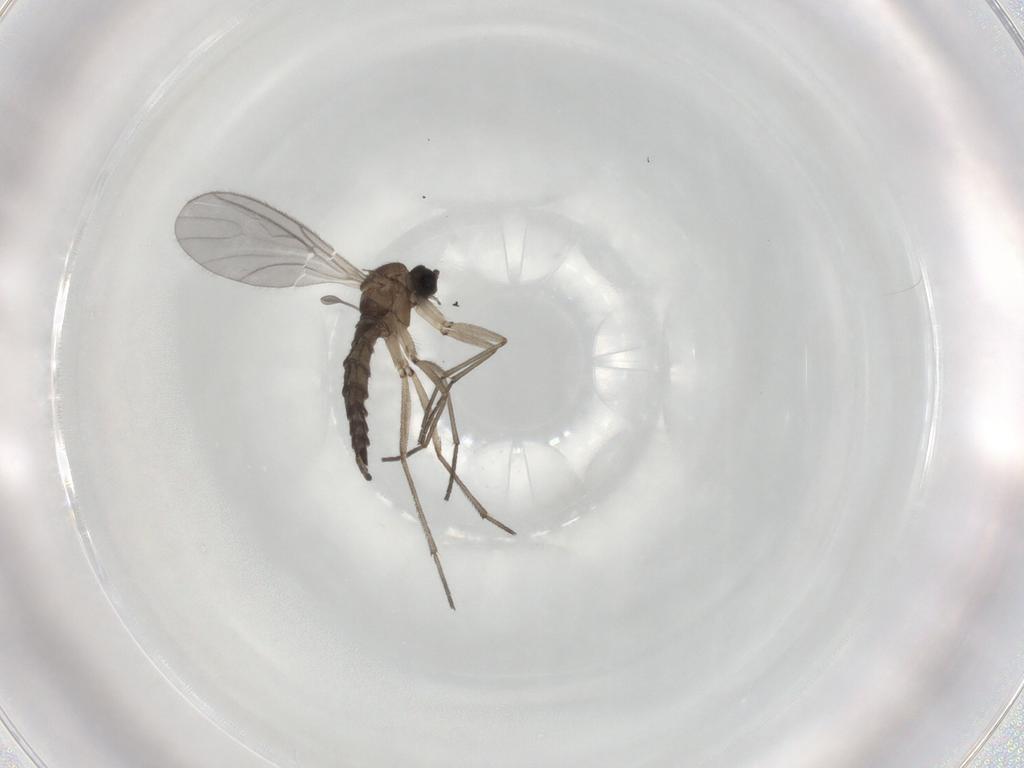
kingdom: Animalia
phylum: Arthropoda
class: Insecta
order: Diptera
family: Sciaridae
